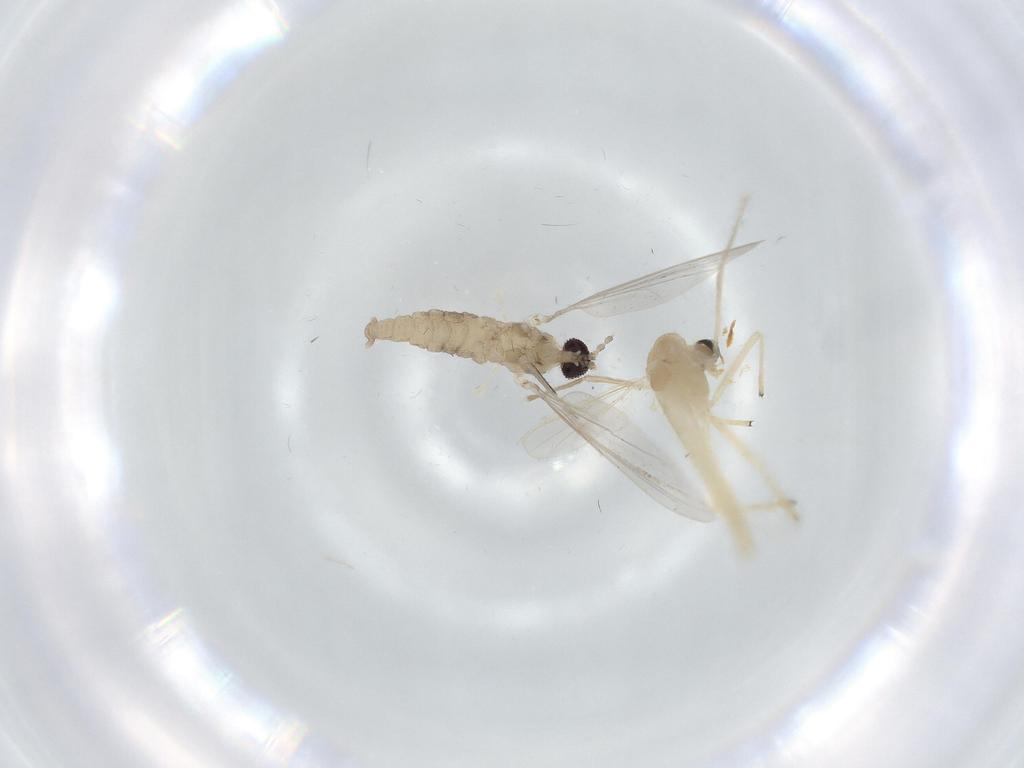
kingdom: Animalia
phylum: Arthropoda
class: Insecta
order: Diptera
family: Cecidomyiidae
